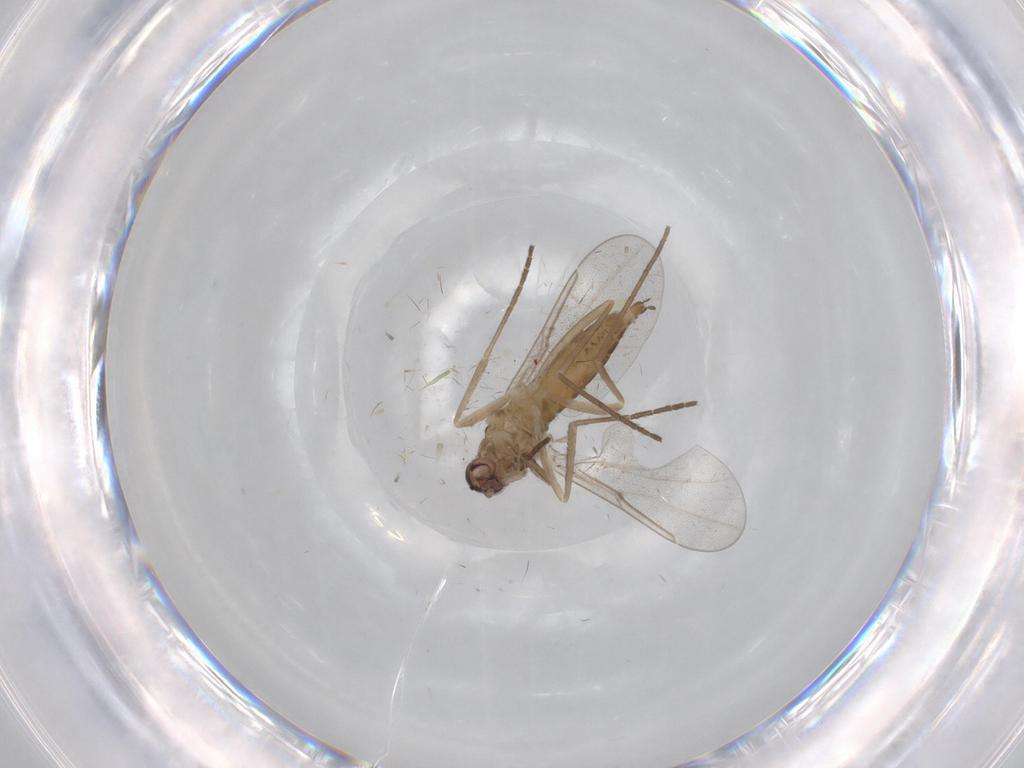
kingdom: Animalia
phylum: Arthropoda
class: Insecta
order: Diptera
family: Cecidomyiidae
